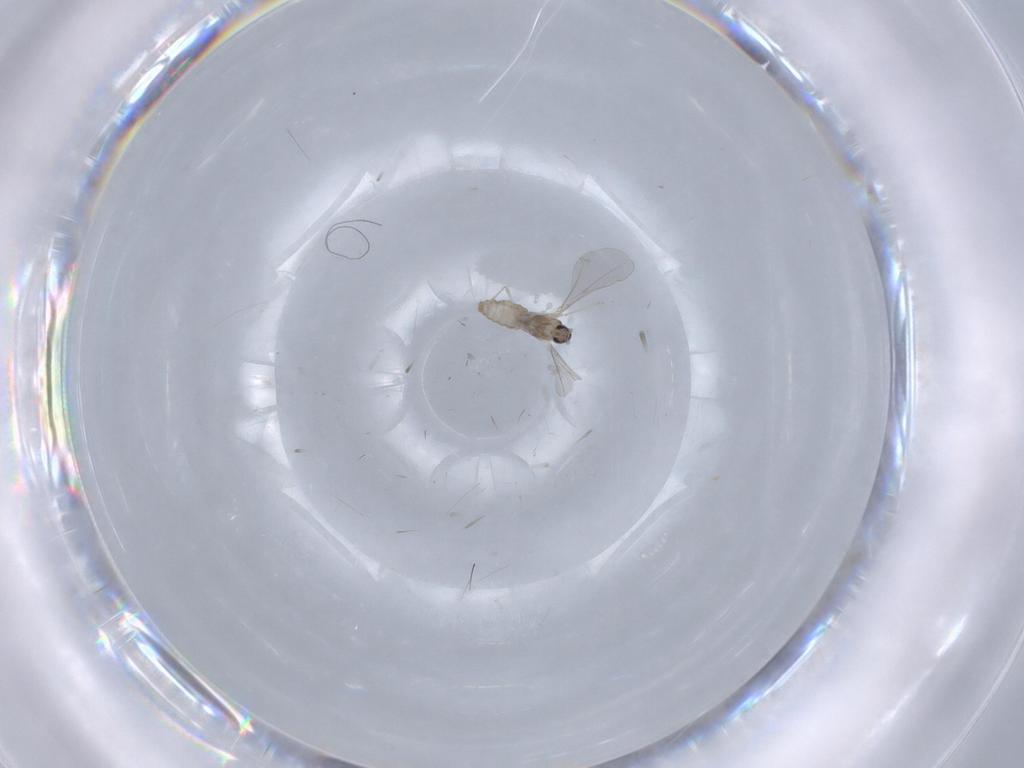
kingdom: Animalia
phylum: Arthropoda
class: Insecta
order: Diptera
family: Cecidomyiidae
